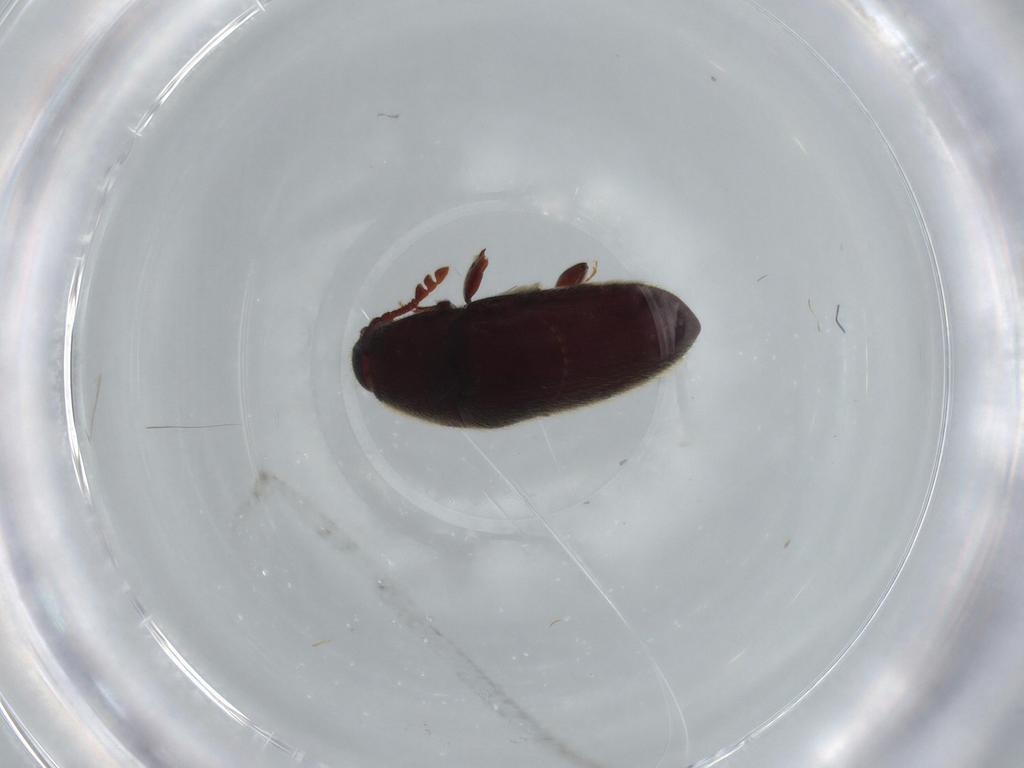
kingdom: Animalia
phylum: Arthropoda
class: Insecta
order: Coleoptera
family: Throscidae
